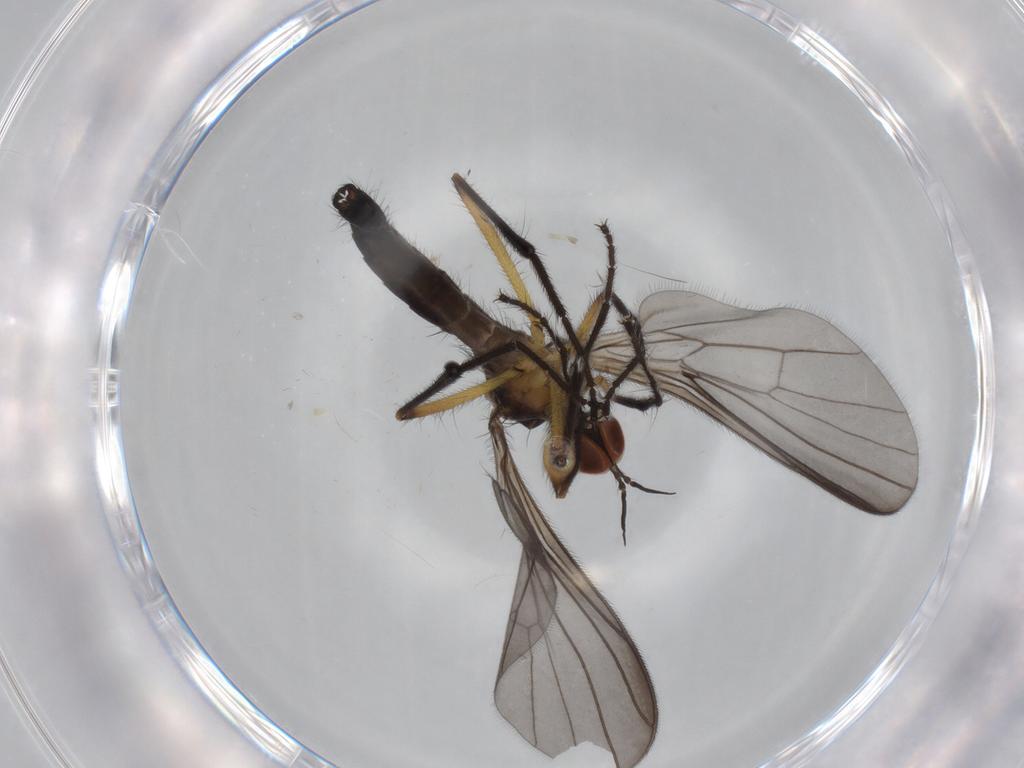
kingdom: Animalia
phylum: Arthropoda
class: Insecta
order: Diptera
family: Empididae
